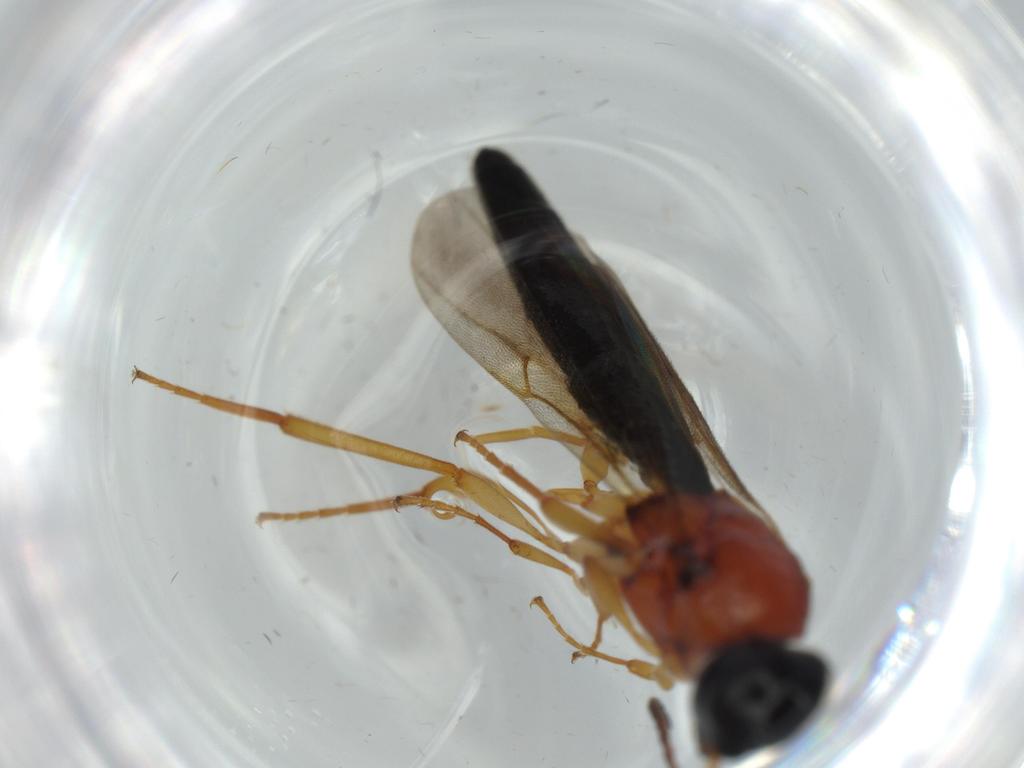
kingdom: Animalia
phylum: Arthropoda
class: Insecta
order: Hymenoptera
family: Scelionidae
